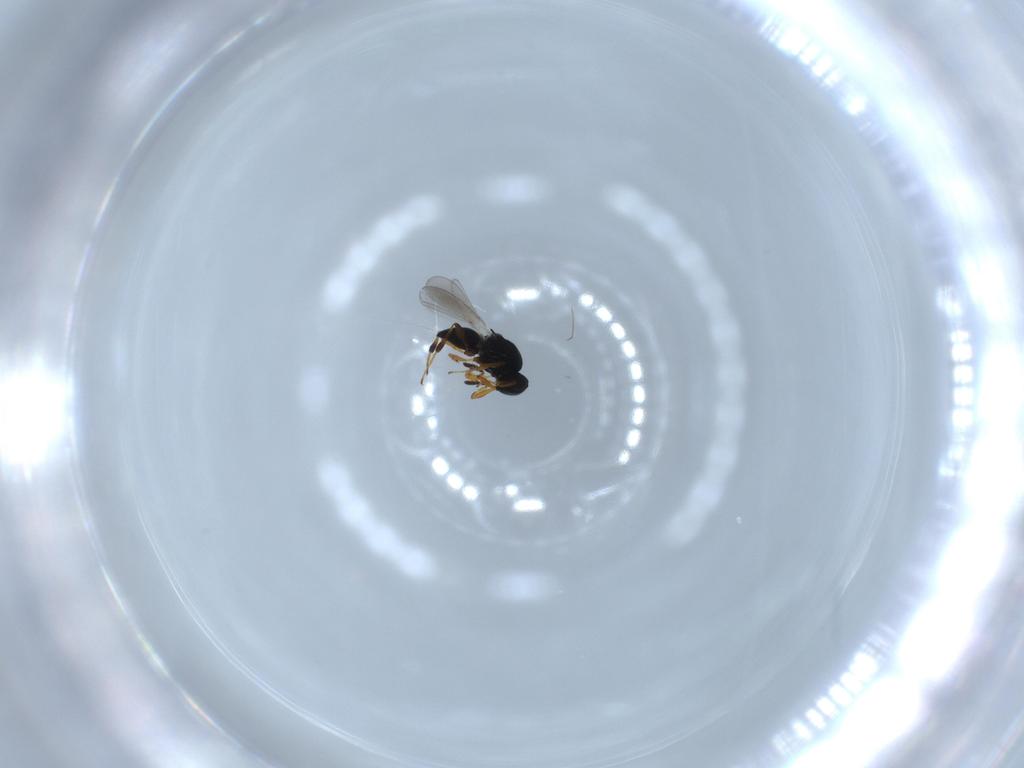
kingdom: Animalia
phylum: Arthropoda
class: Insecta
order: Hymenoptera
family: Platygastridae
